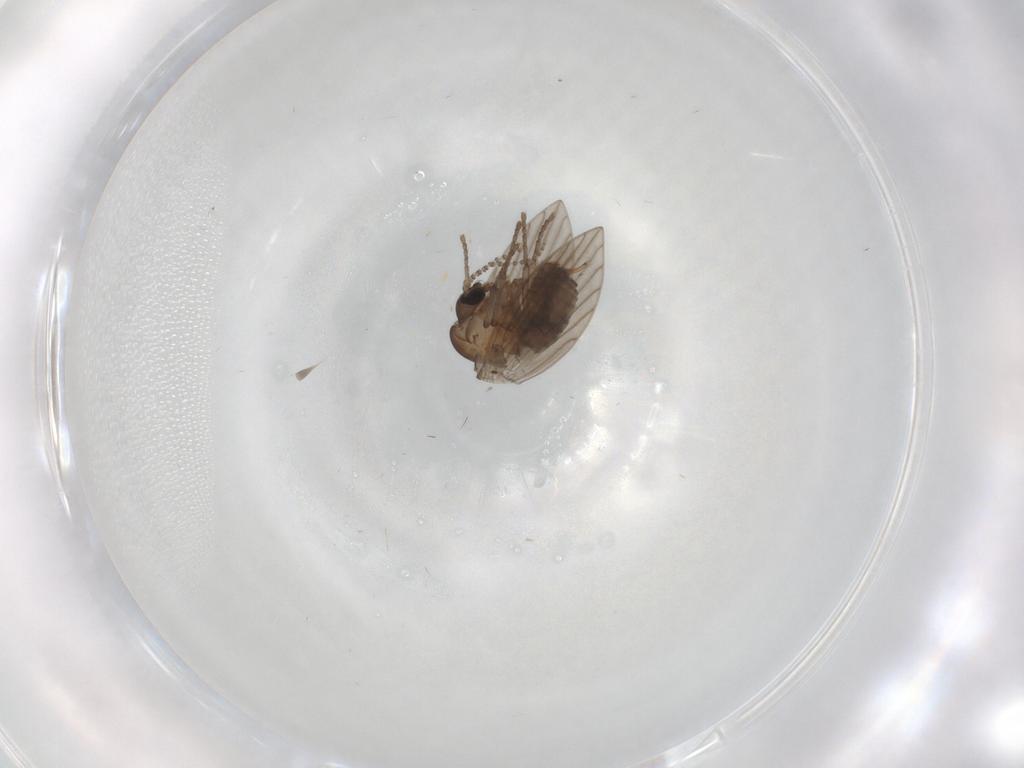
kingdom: Animalia
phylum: Arthropoda
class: Insecta
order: Diptera
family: Psychodidae
